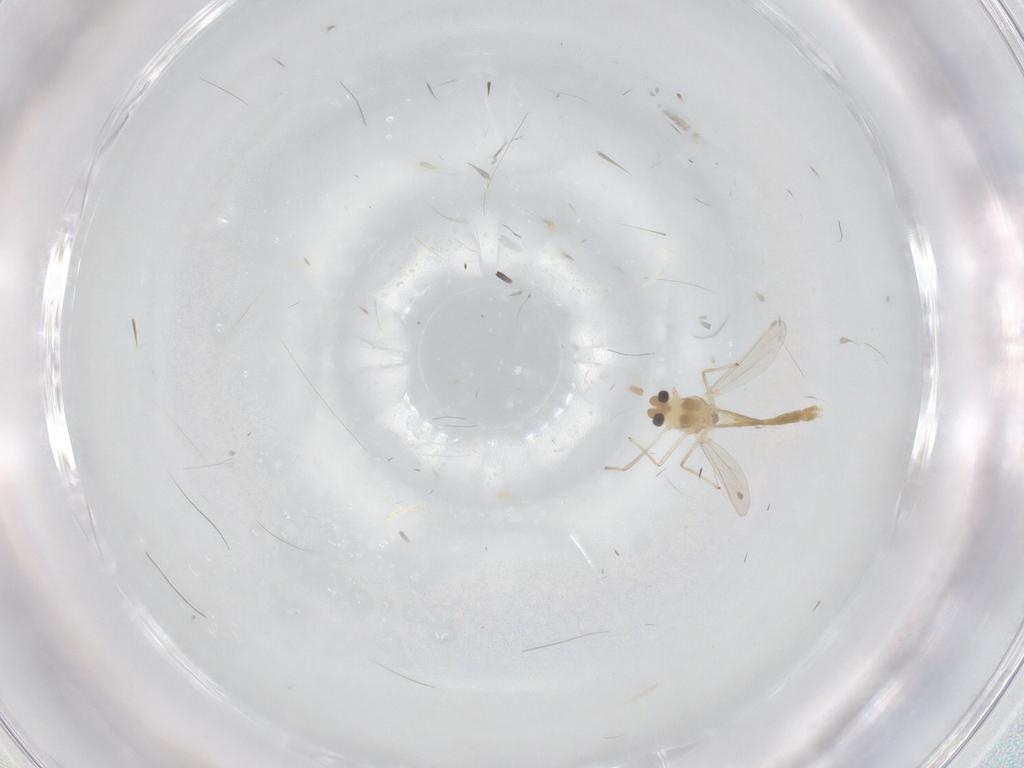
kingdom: Animalia
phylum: Arthropoda
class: Insecta
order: Diptera
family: Chironomidae
